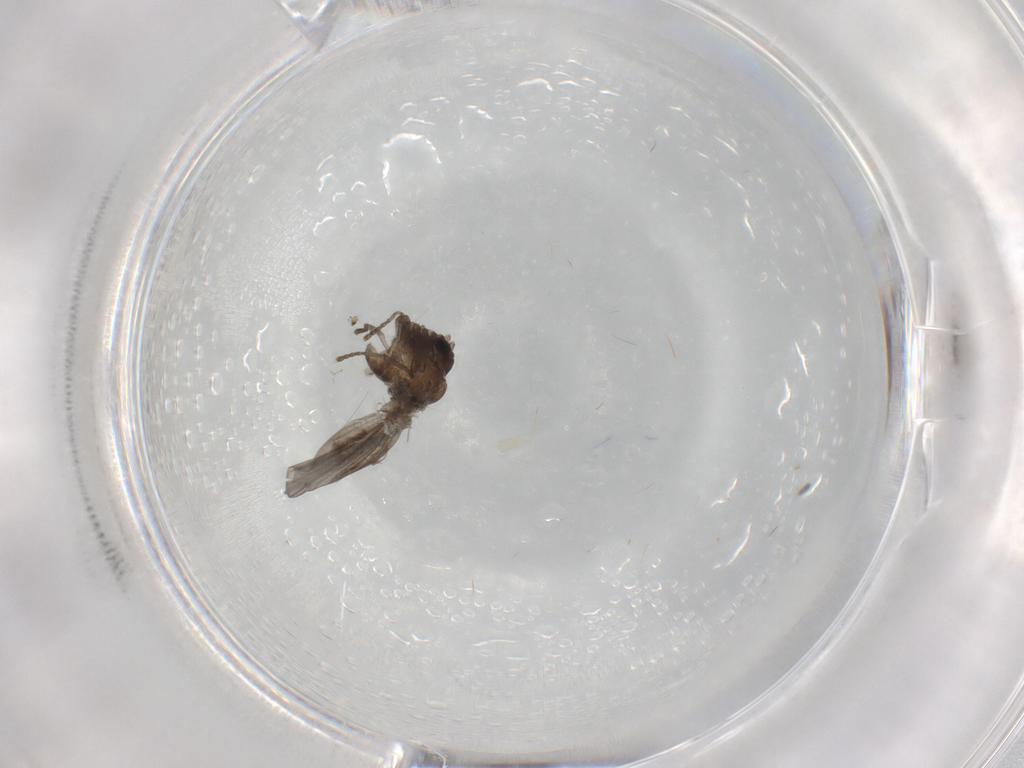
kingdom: Animalia
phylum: Arthropoda
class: Insecta
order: Diptera
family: Psychodidae
